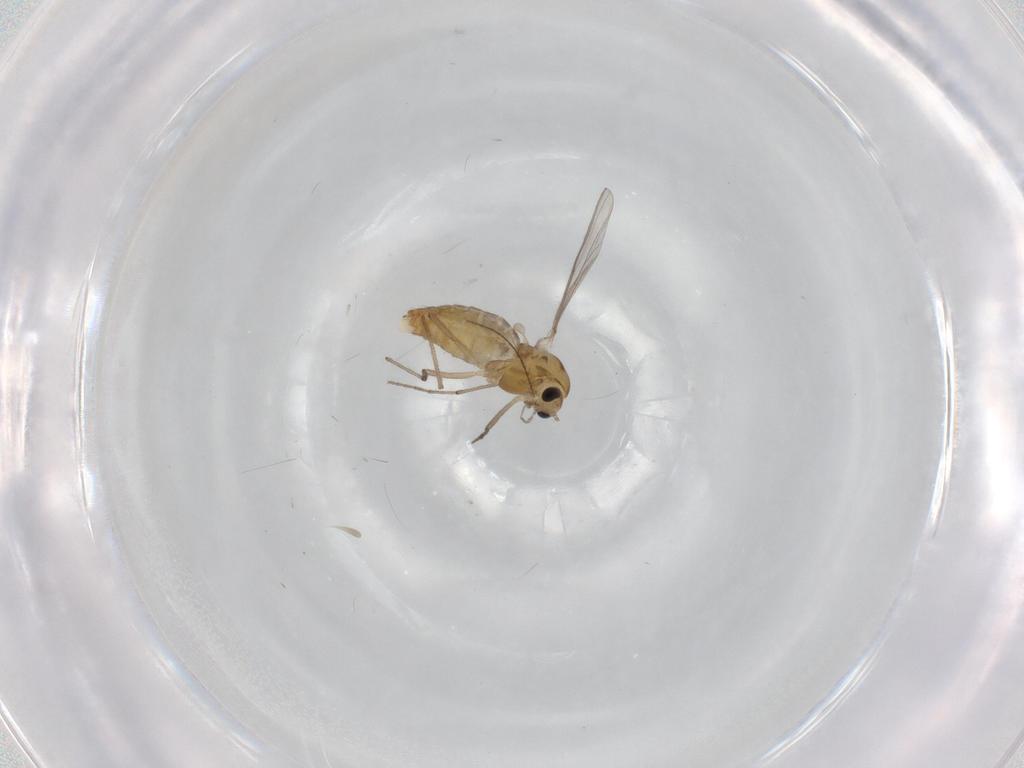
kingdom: Animalia
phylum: Arthropoda
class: Insecta
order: Diptera
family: Chironomidae
